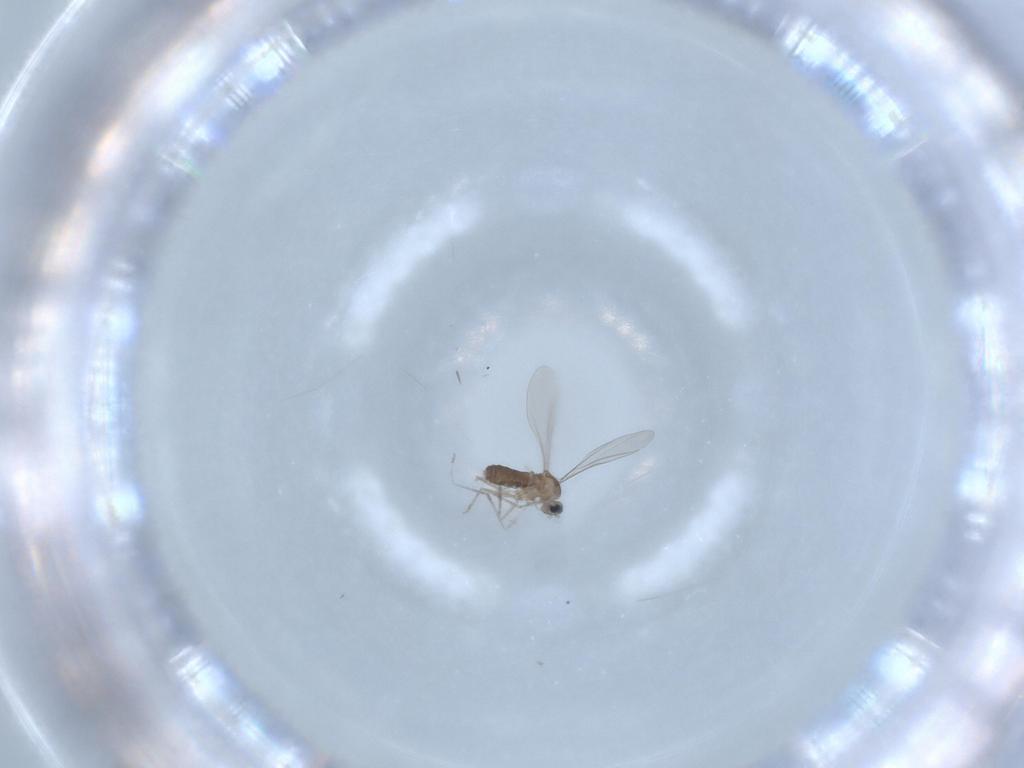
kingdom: Animalia
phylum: Arthropoda
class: Insecta
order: Diptera
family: Cecidomyiidae
